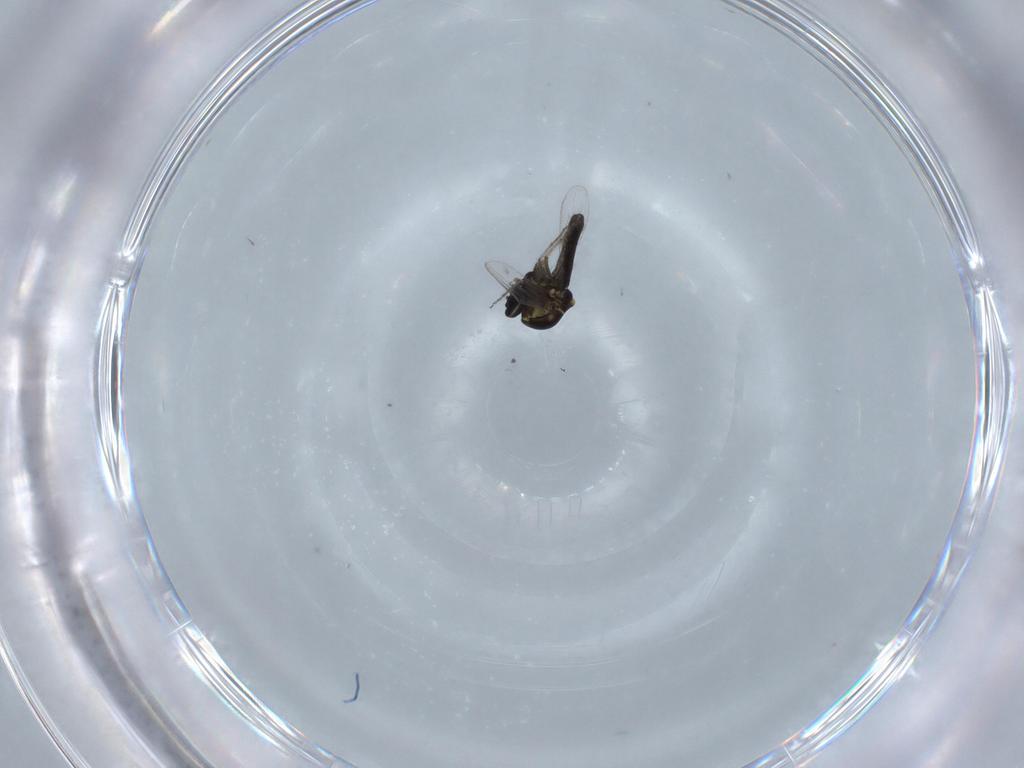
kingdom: Animalia
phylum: Arthropoda
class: Insecta
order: Diptera
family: Ceratopogonidae
